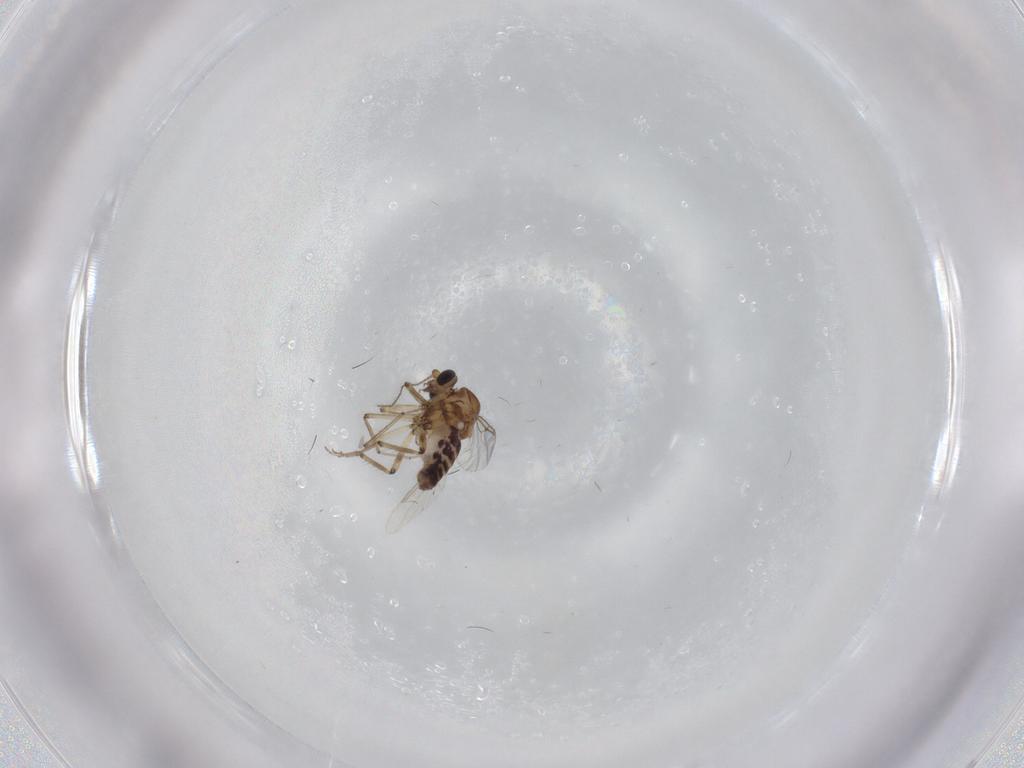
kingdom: Animalia
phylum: Arthropoda
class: Insecta
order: Diptera
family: Ceratopogonidae
